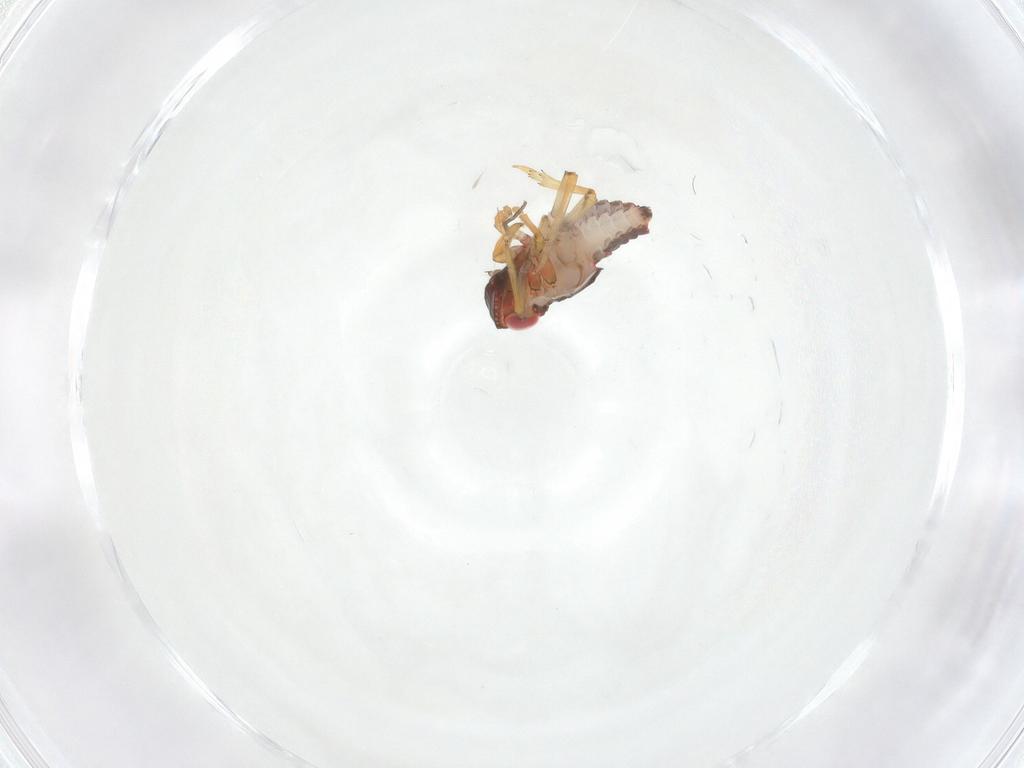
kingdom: Animalia
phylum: Arthropoda
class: Insecta
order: Hemiptera
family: Fulgoroidea_incertae_sedis
